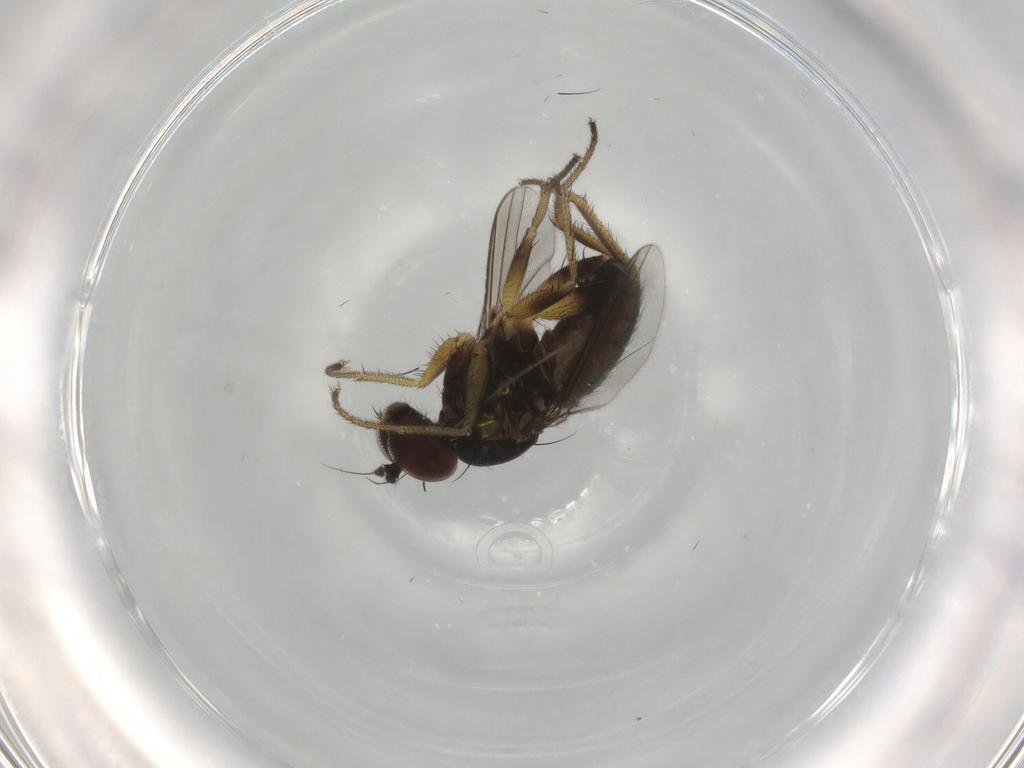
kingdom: Animalia
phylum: Arthropoda
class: Insecta
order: Diptera
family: Dolichopodidae
